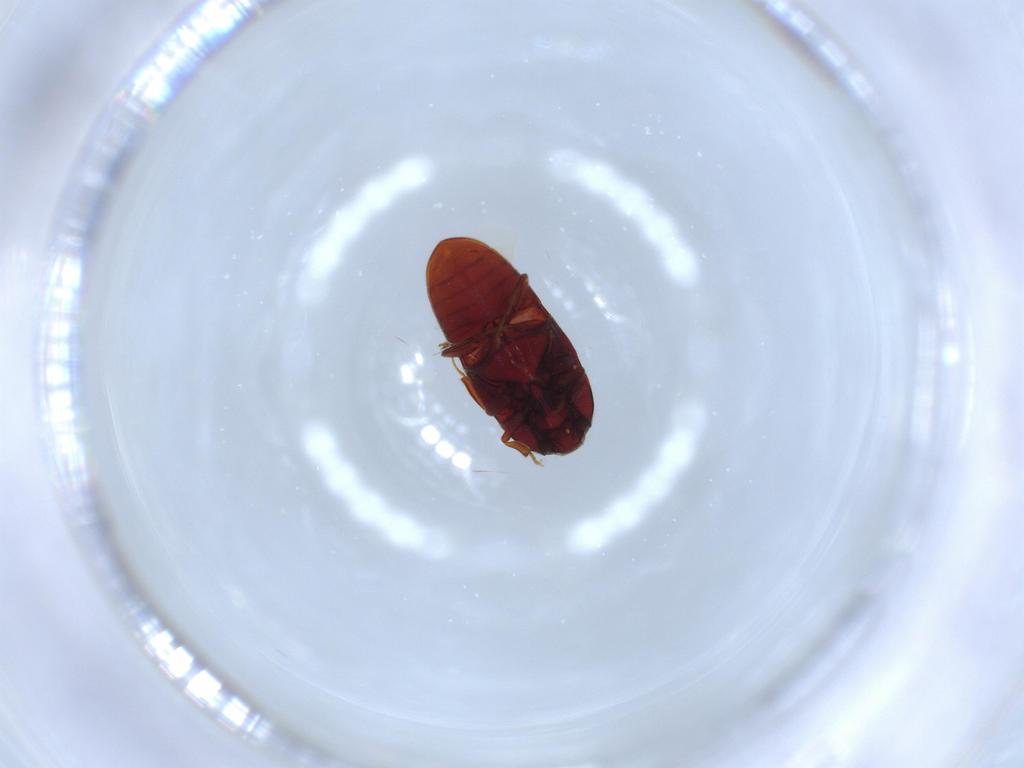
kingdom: Animalia
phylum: Arthropoda
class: Insecta
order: Coleoptera
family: Throscidae
